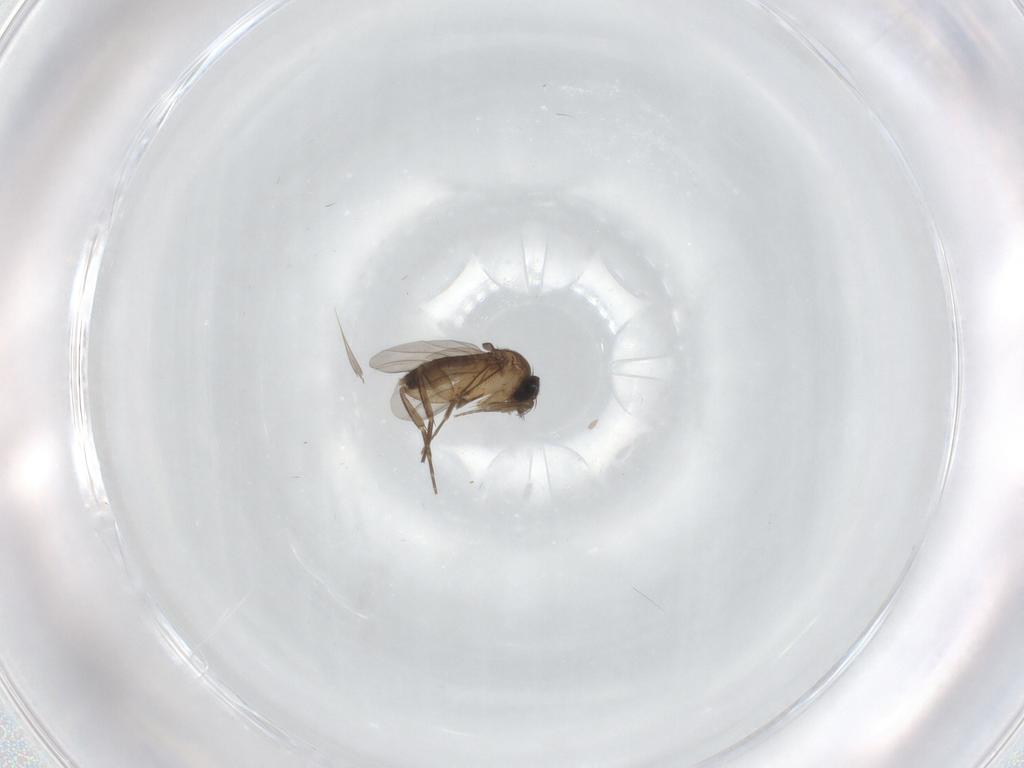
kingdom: Animalia
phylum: Arthropoda
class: Insecta
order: Diptera
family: Phoridae
